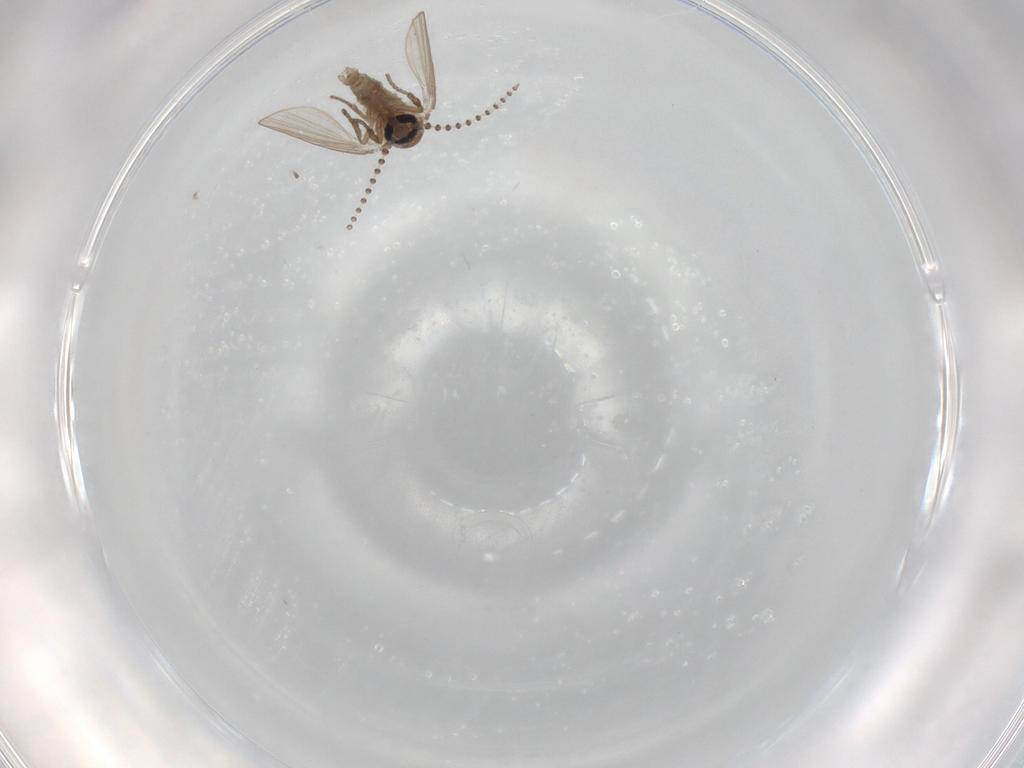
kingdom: Animalia
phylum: Arthropoda
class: Insecta
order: Diptera
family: Psychodidae
